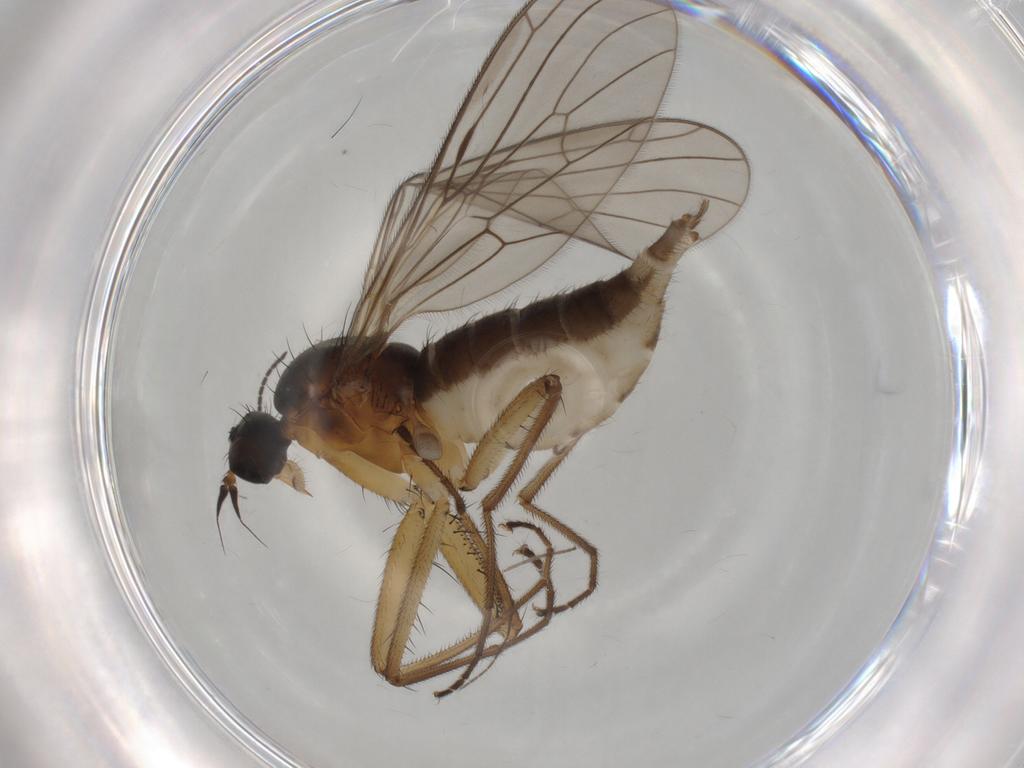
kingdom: Animalia
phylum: Arthropoda
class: Insecta
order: Diptera
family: Empididae
